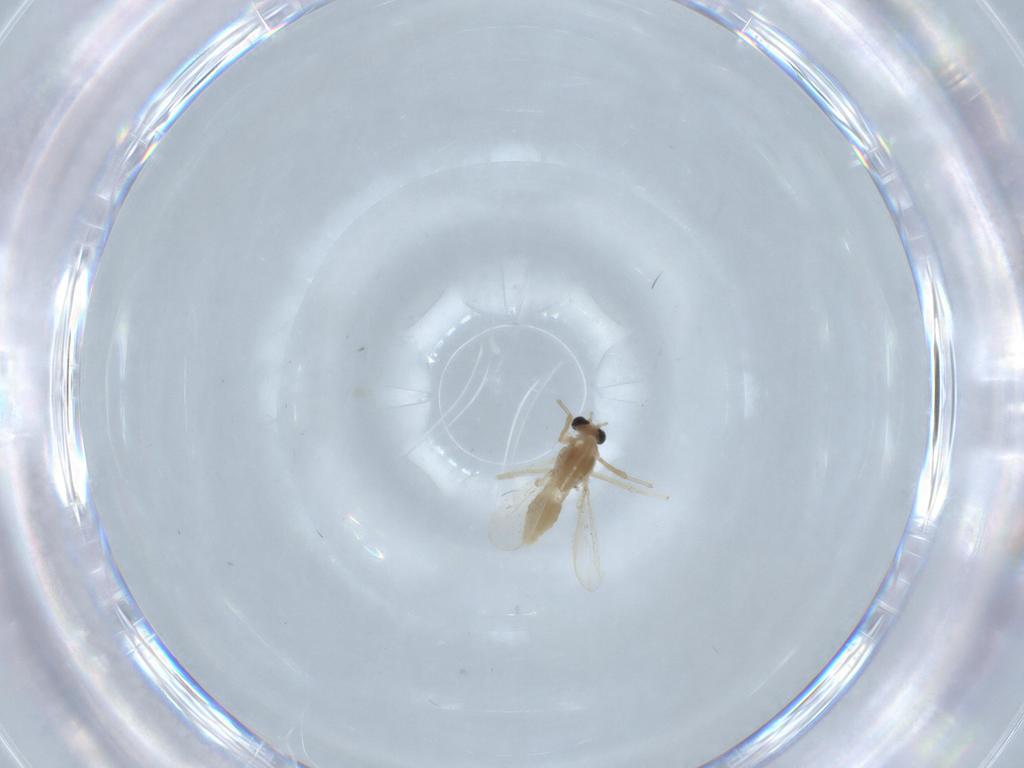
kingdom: Animalia
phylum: Arthropoda
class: Insecta
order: Diptera
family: Chironomidae
